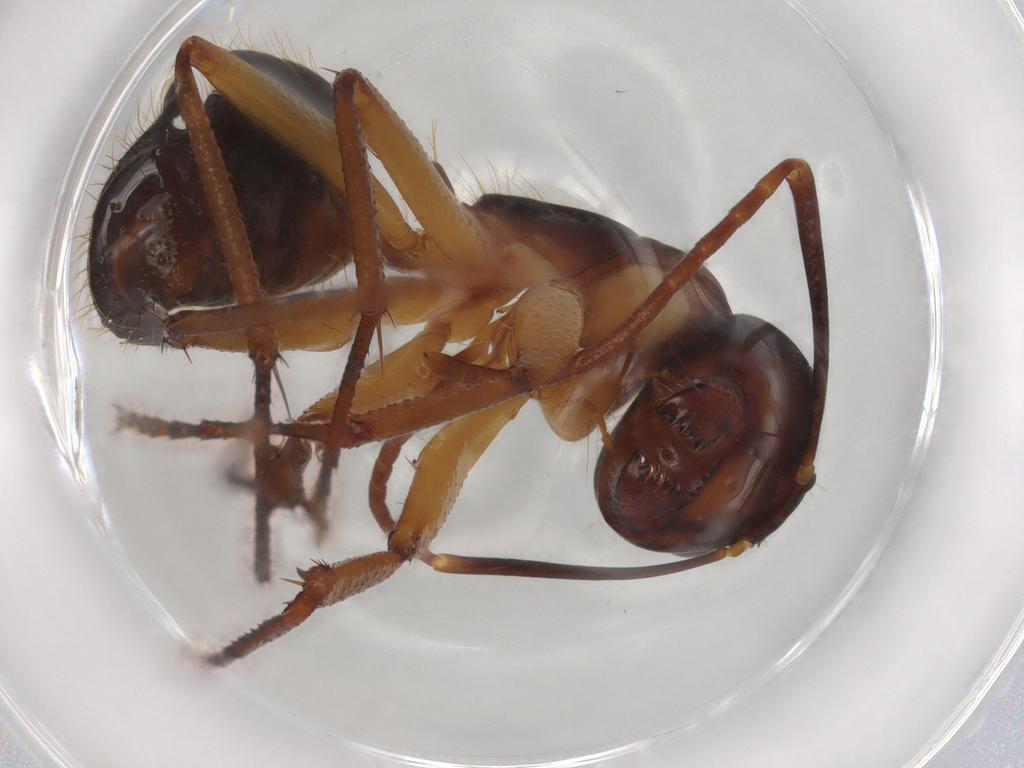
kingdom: Animalia
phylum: Arthropoda
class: Insecta
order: Hymenoptera
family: Formicidae
